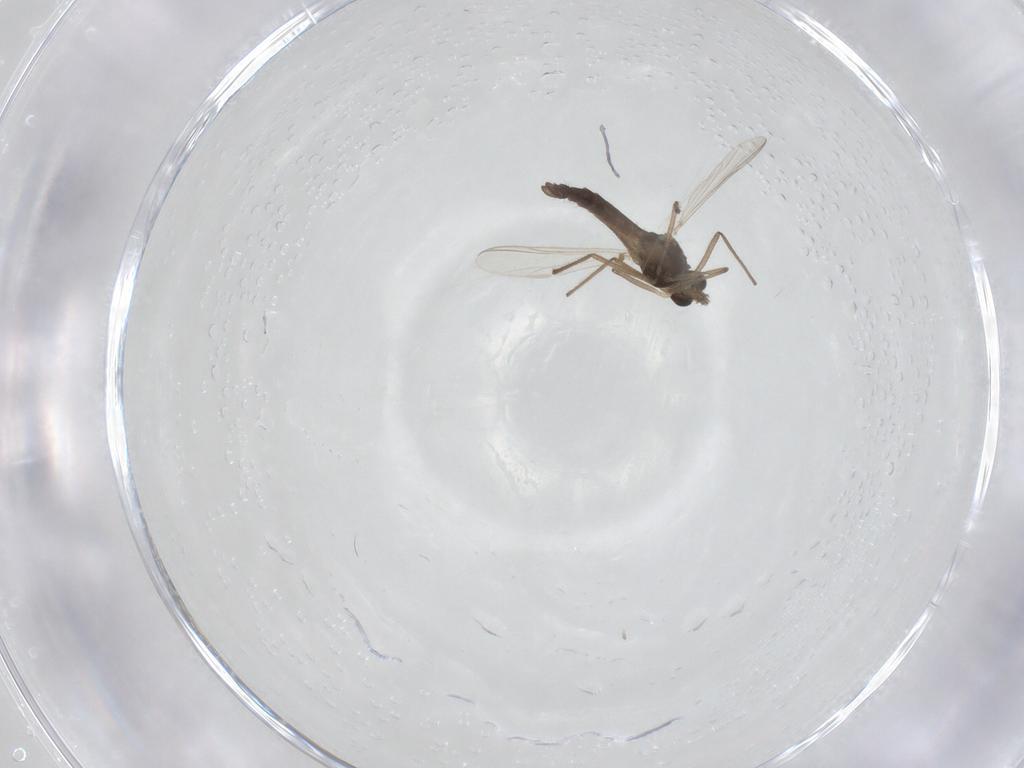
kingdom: Animalia
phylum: Arthropoda
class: Insecta
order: Diptera
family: Chironomidae
